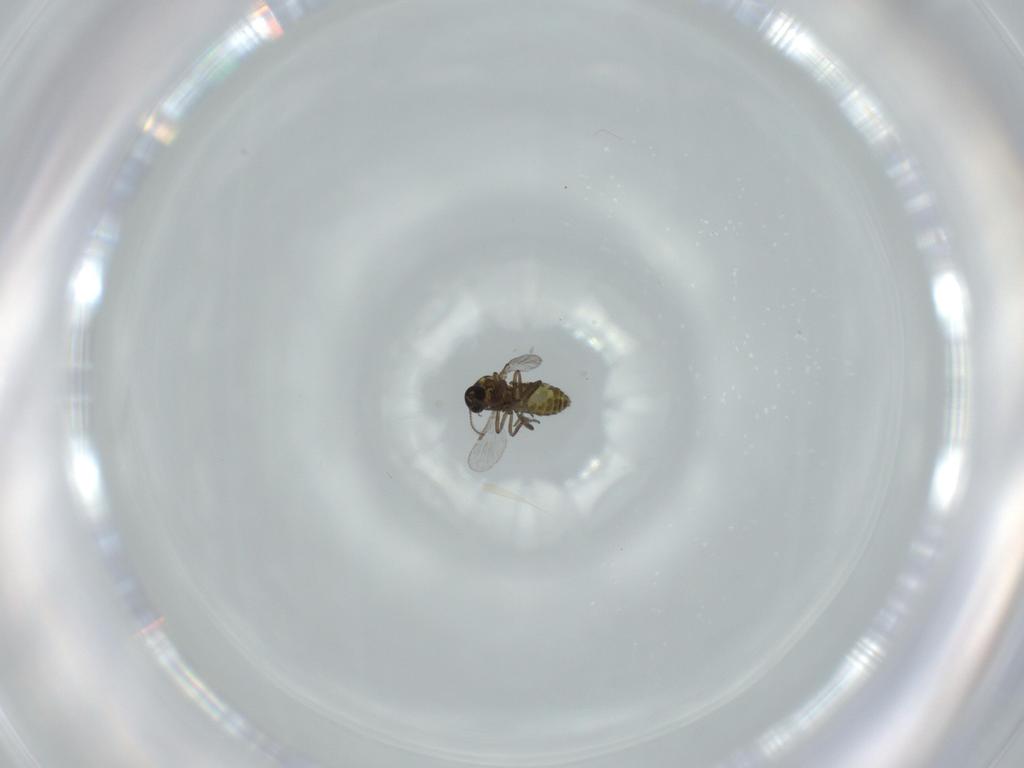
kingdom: Animalia
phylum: Arthropoda
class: Insecta
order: Diptera
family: Ceratopogonidae
